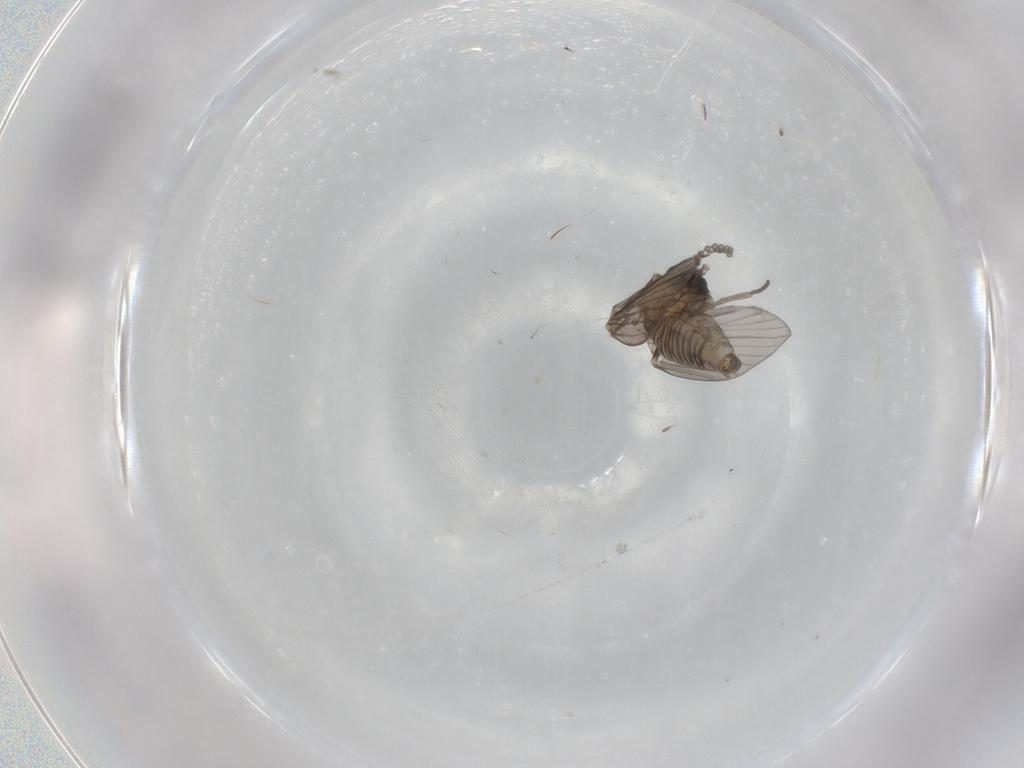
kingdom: Animalia
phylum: Arthropoda
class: Insecta
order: Diptera
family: Psychodidae
